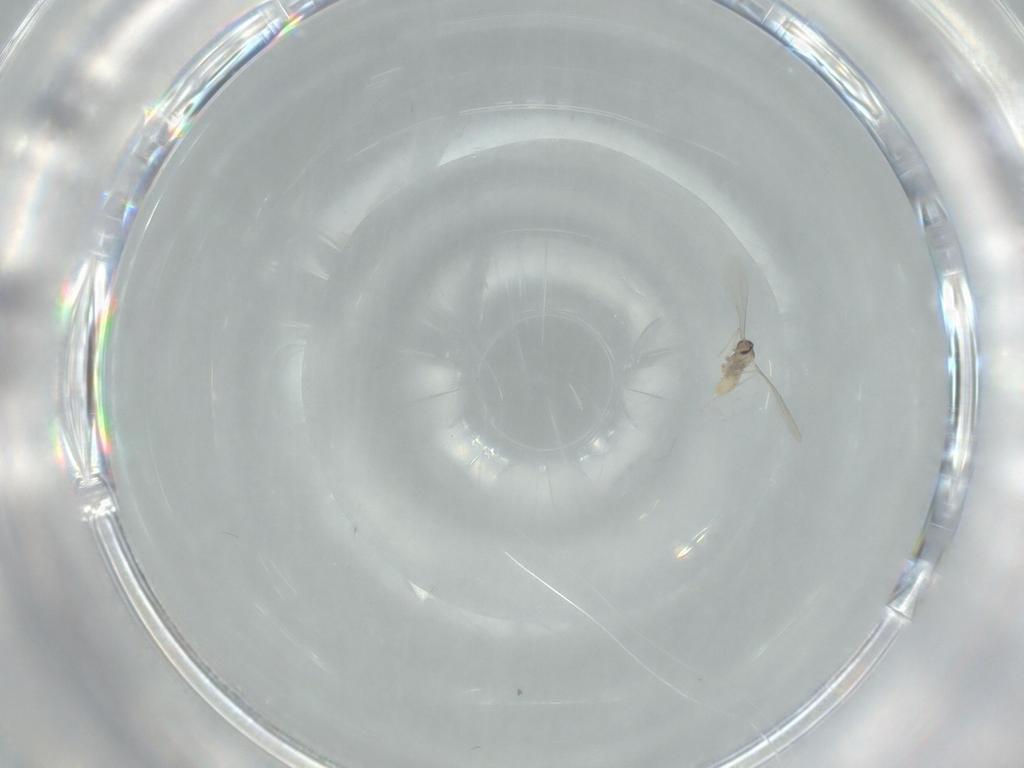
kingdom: Animalia
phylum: Arthropoda
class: Insecta
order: Diptera
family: Cecidomyiidae
